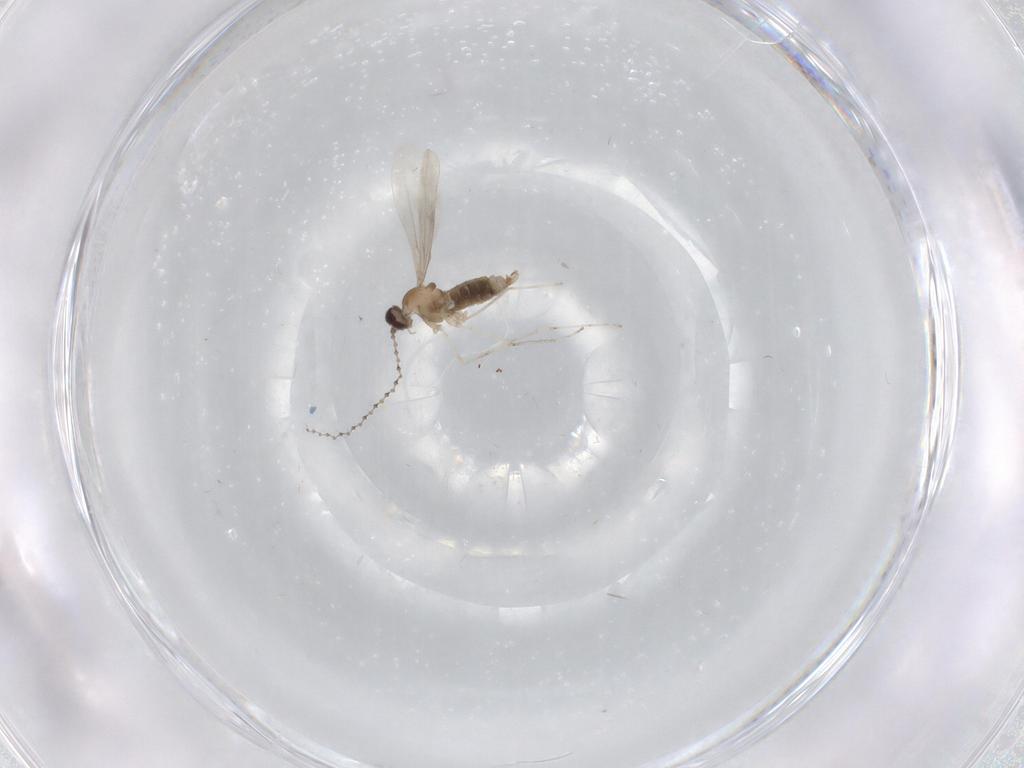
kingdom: Animalia
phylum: Arthropoda
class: Insecta
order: Diptera
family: Cecidomyiidae
